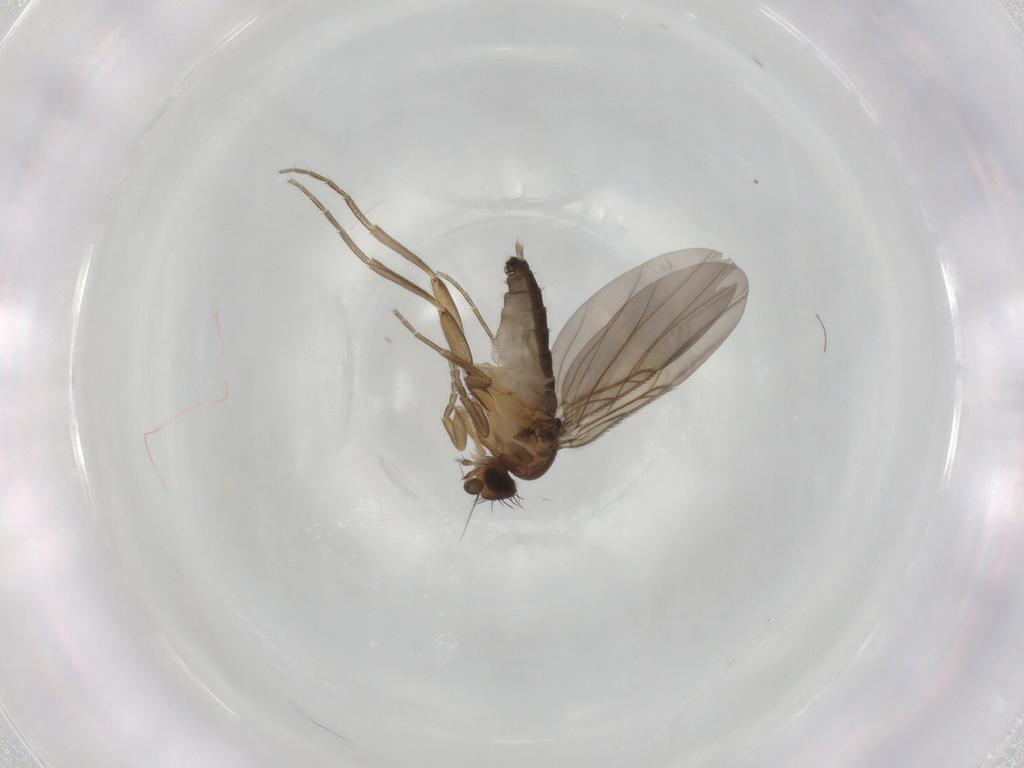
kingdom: Animalia
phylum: Arthropoda
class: Insecta
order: Diptera
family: Phoridae
